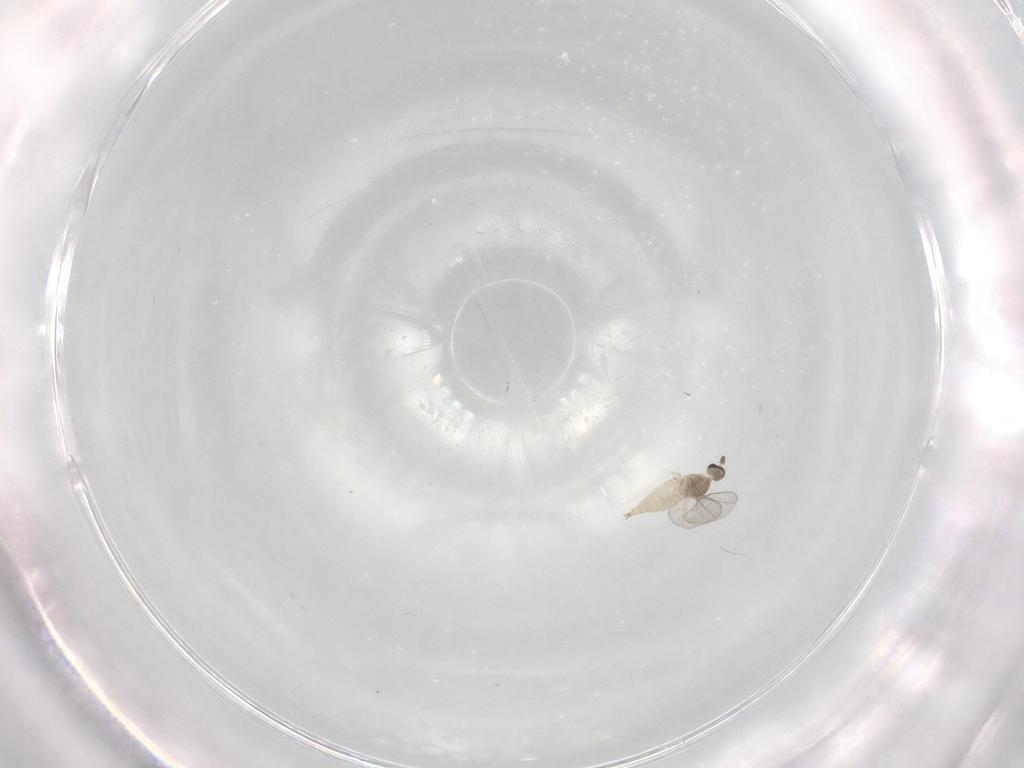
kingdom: Animalia
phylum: Arthropoda
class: Insecta
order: Diptera
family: Cecidomyiidae
